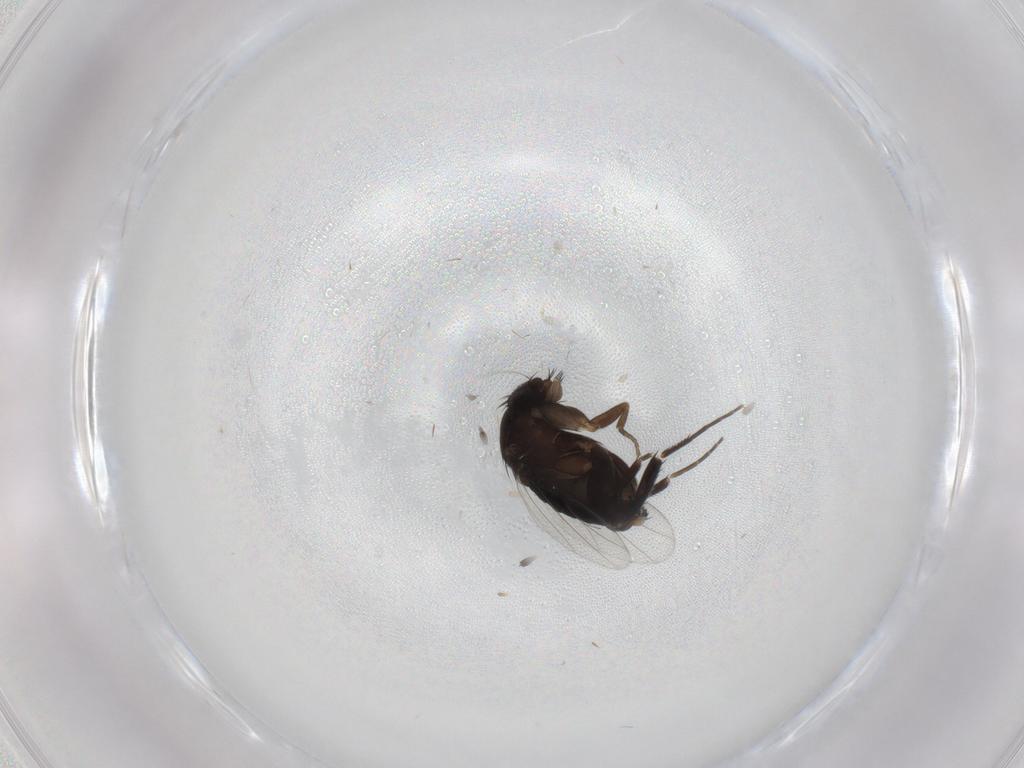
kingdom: Animalia
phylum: Arthropoda
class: Insecta
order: Diptera
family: Phoridae
